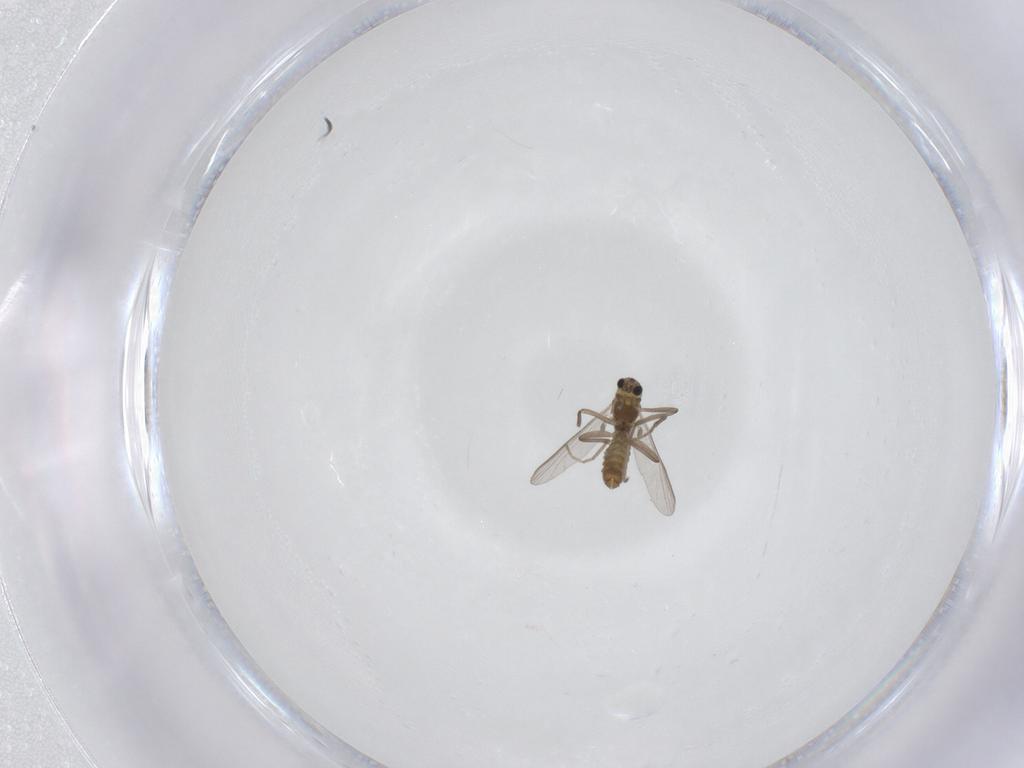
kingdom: Animalia
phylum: Arthropoda
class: Insecta
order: Diptera
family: Chironomidae
